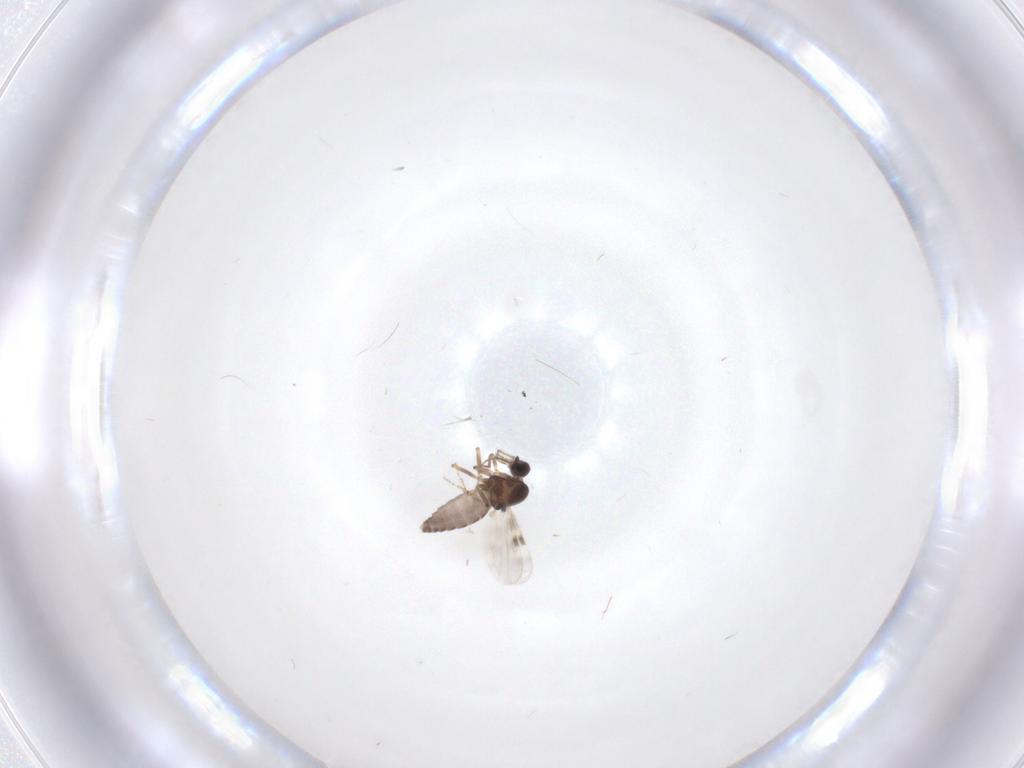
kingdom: Animalia
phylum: Arthropoda
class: Insecta
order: Diptera
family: Chironomidae
